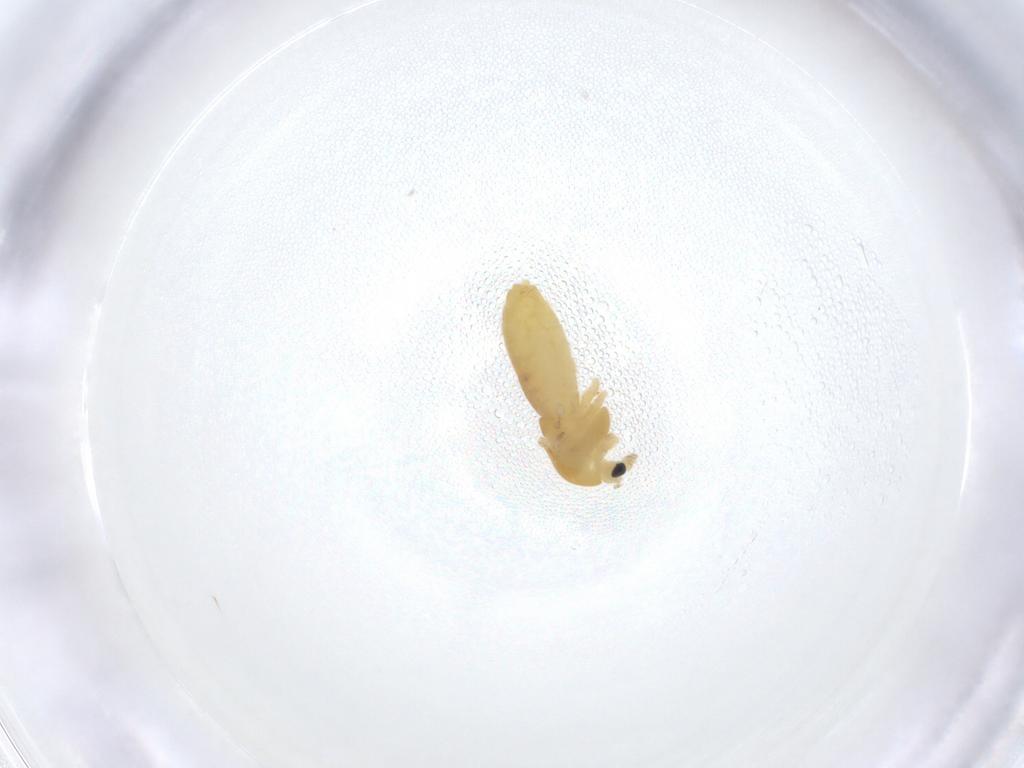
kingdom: Animalia
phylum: Arthropoda
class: Insecta
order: Diptera
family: Chironomidae
